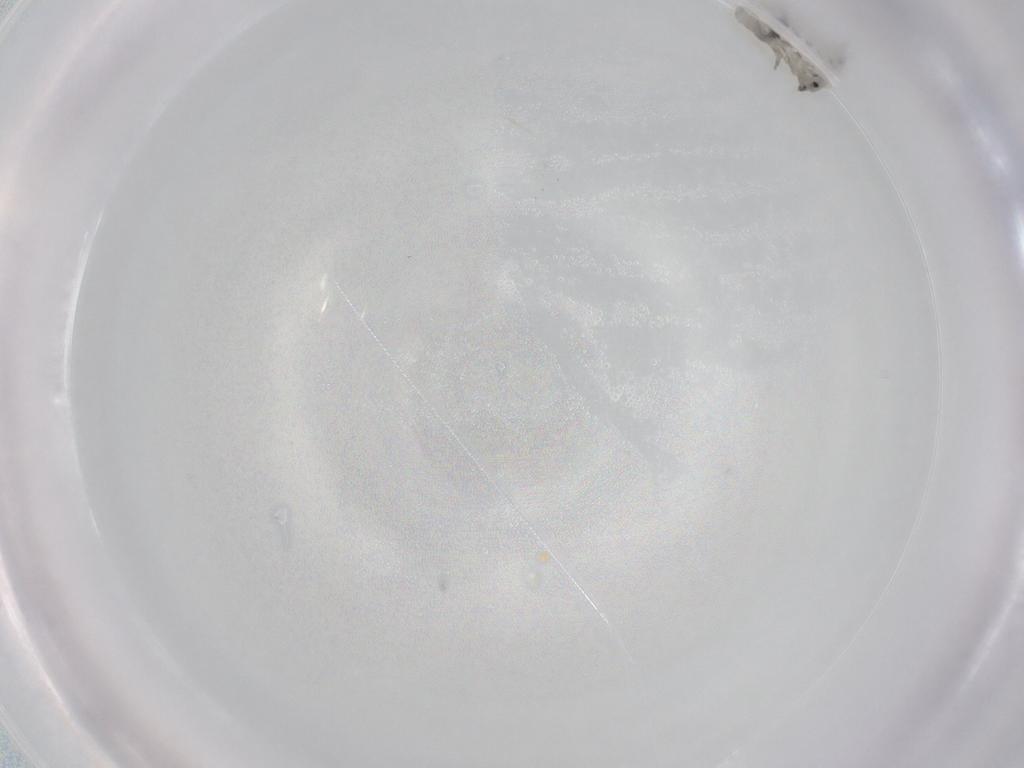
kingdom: Animalia
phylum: Arthropoda
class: Collembola
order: Entomobryomorpha
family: Entomobryidae
